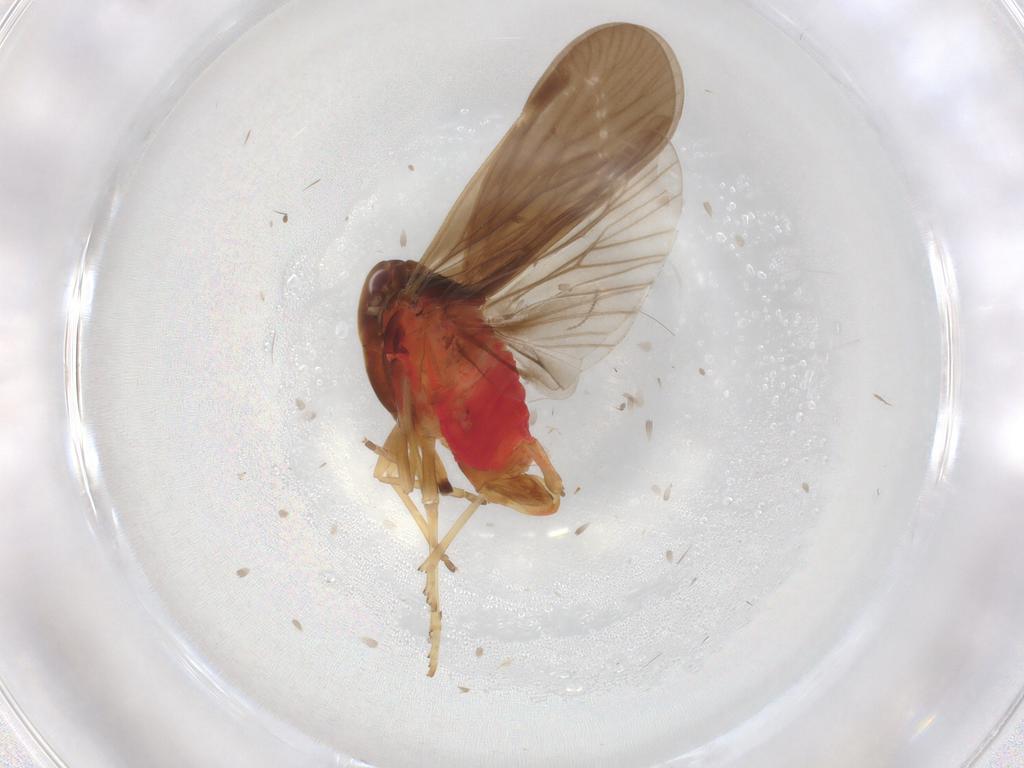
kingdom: Animalia
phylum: Arthropoda
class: Insecta
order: Hemiptera
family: Derbidae
